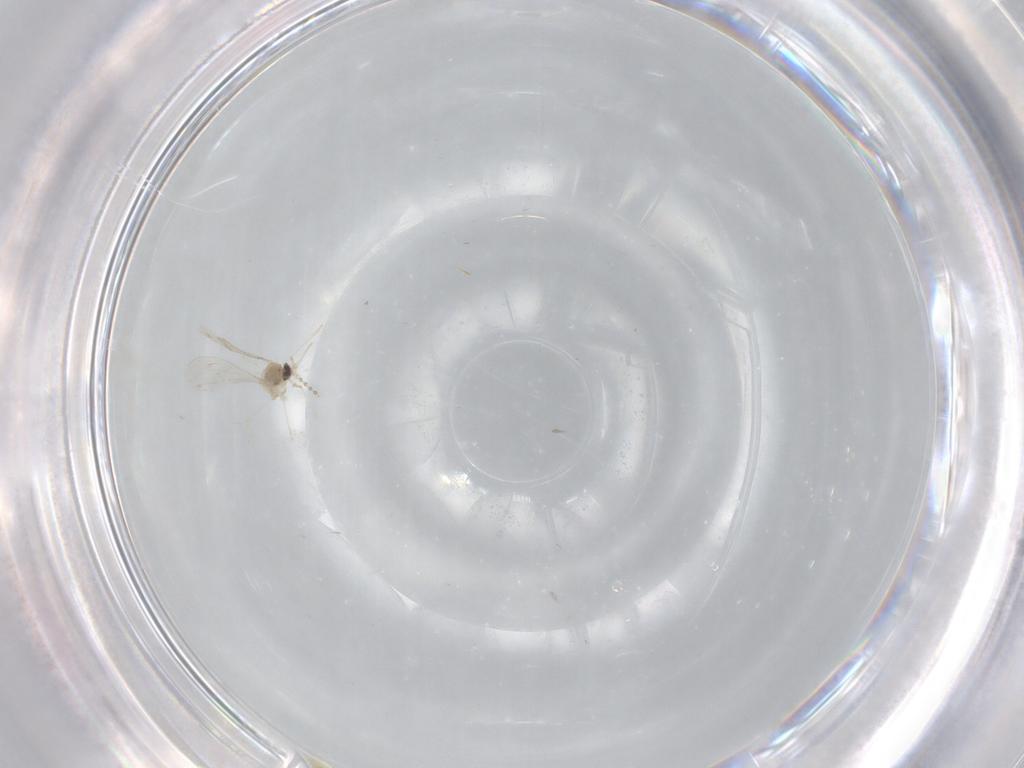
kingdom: Animalia
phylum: Arthropoda
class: Insecta
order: Diptera
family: Cecidomyiidae
